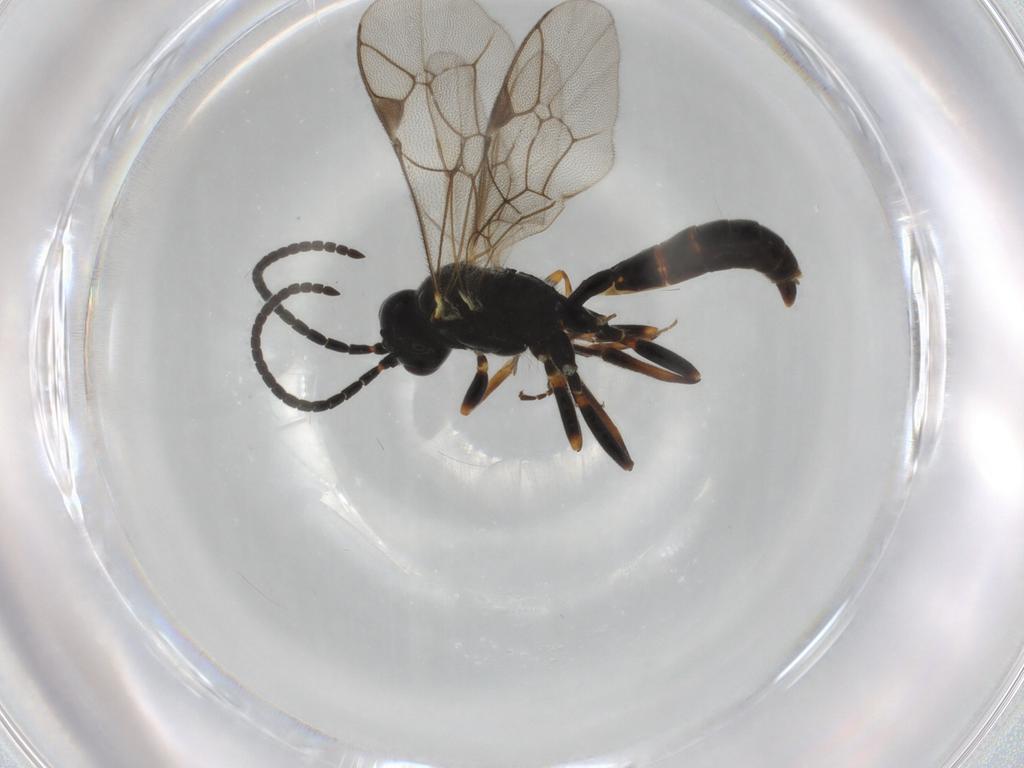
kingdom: Animalia
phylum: Arthropoda
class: Insecta
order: Hymenoptera
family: Ichneumonidae
